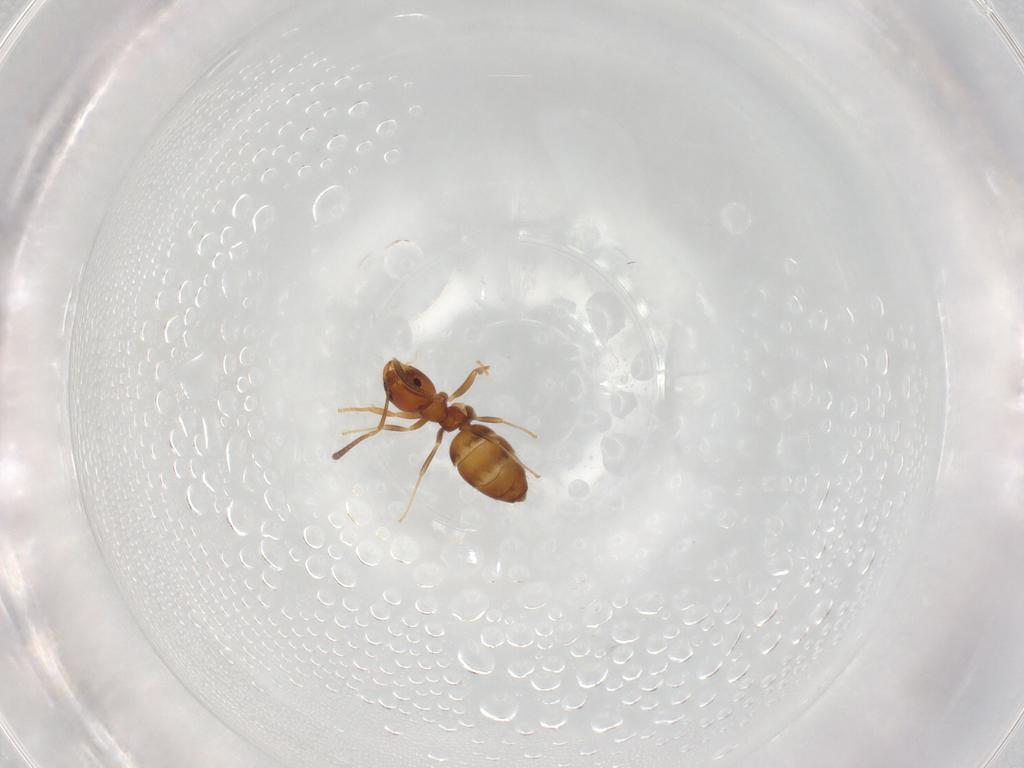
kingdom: Animalia
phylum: Arthropoda
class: Insecta
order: Hymenoptera
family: Formicidae
